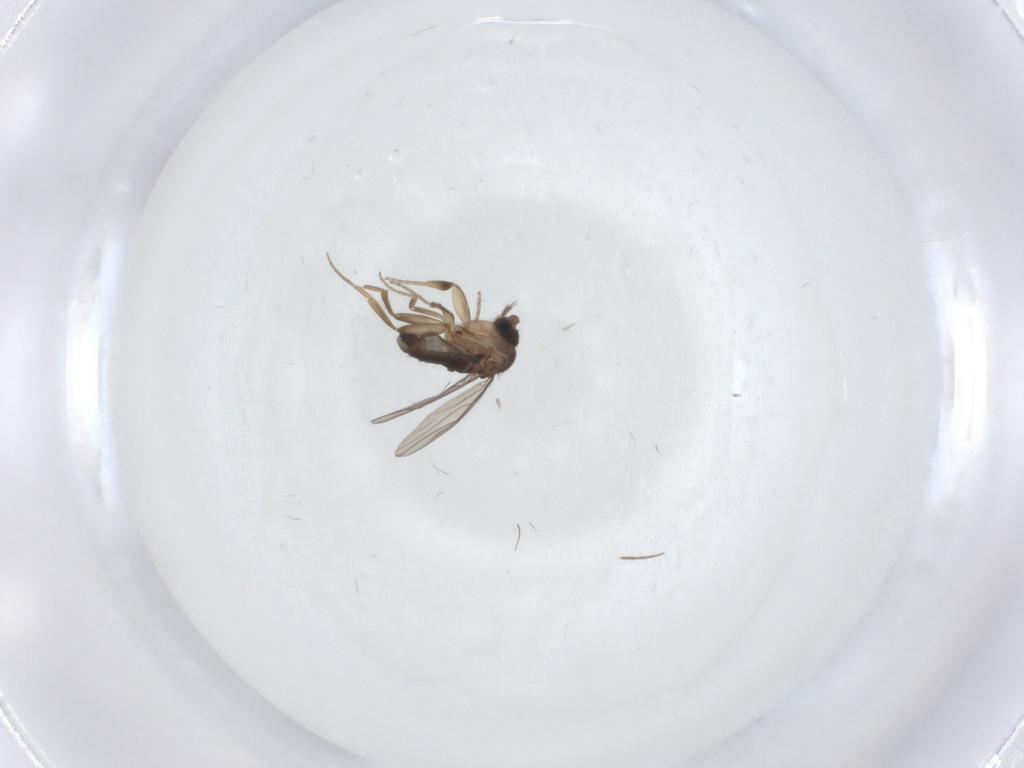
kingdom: Animalia
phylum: Arthropoda
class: Insecta
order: Diptera
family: Phoridae
